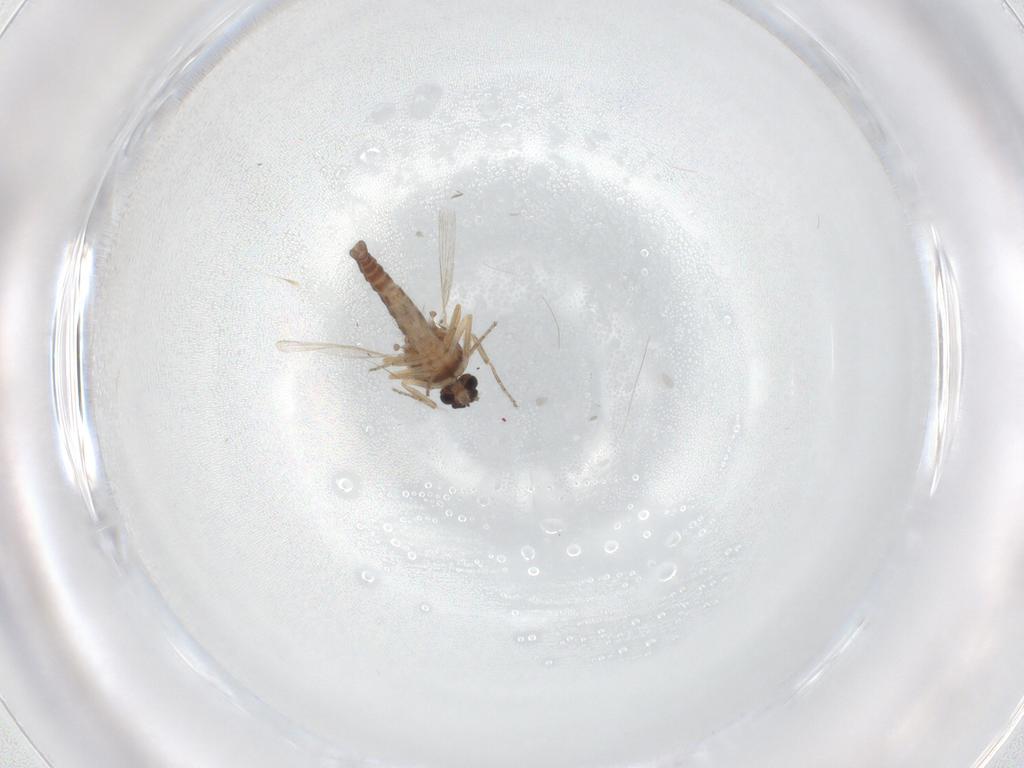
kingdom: Animalia
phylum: Arthropoda
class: Insecta
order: Diptera
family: Ceratopogonidae
